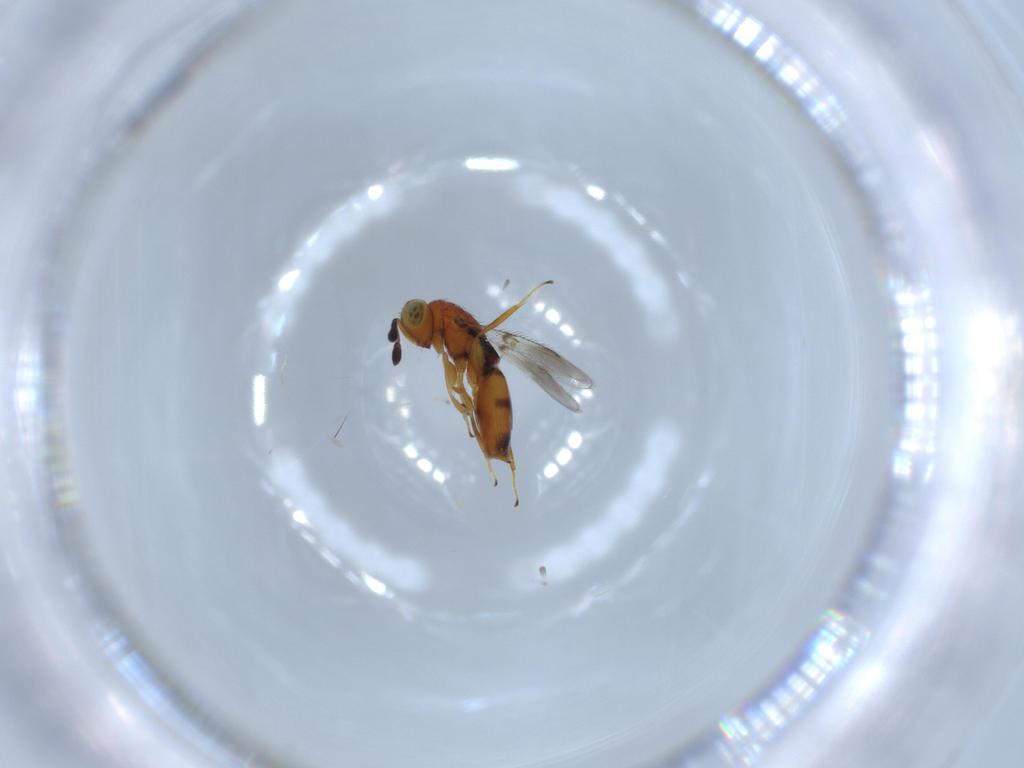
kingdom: Animalia
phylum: Arthropoda
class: Insecta
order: Hymenoptera
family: Moranilidae
